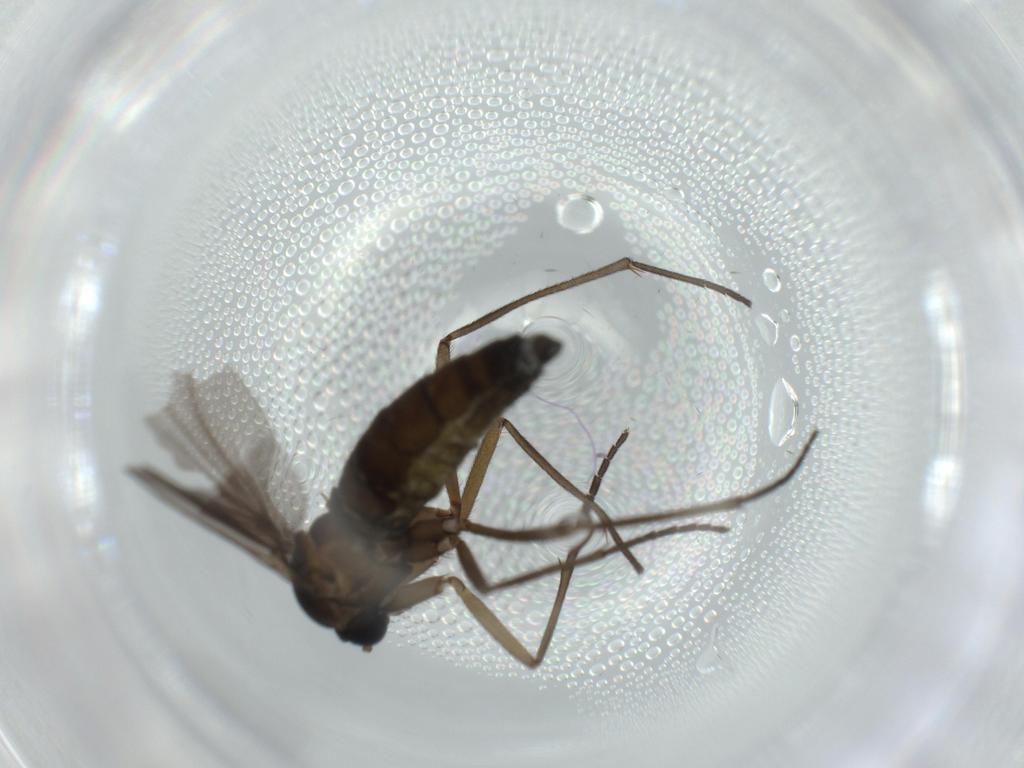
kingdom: Animalia
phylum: Arthropoda
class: Insecta
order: Diptera
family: Sciaridae
